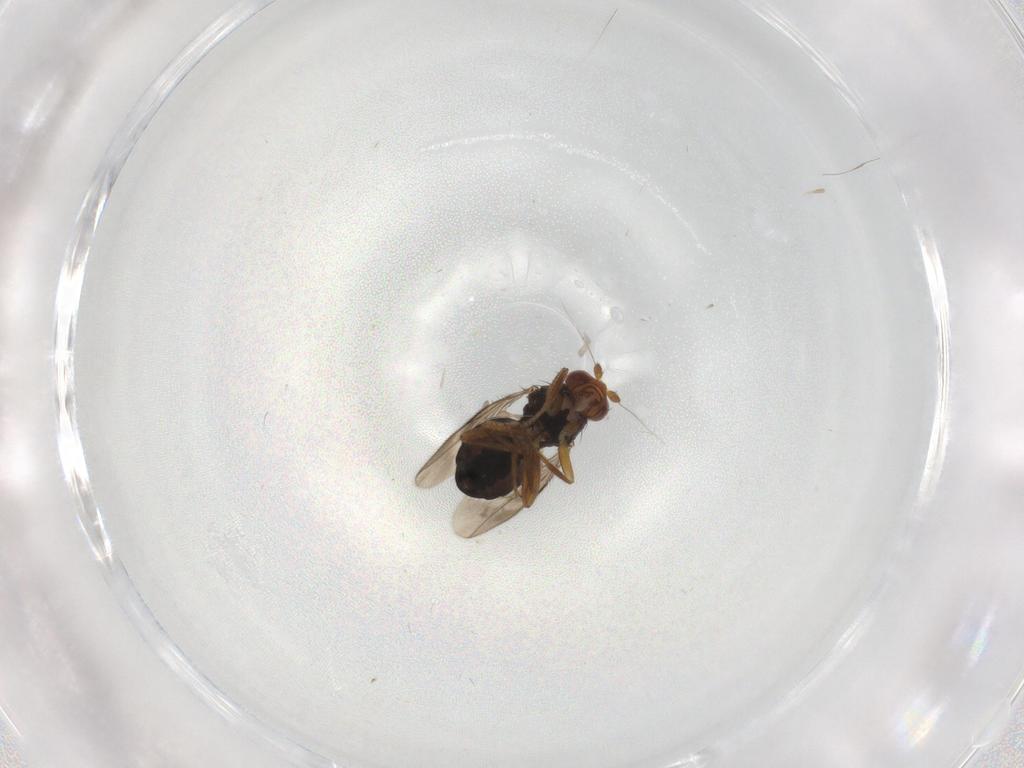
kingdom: Animalia
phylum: Arthropoda
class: Insecta
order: Diptera
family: Sphaeroceridae
